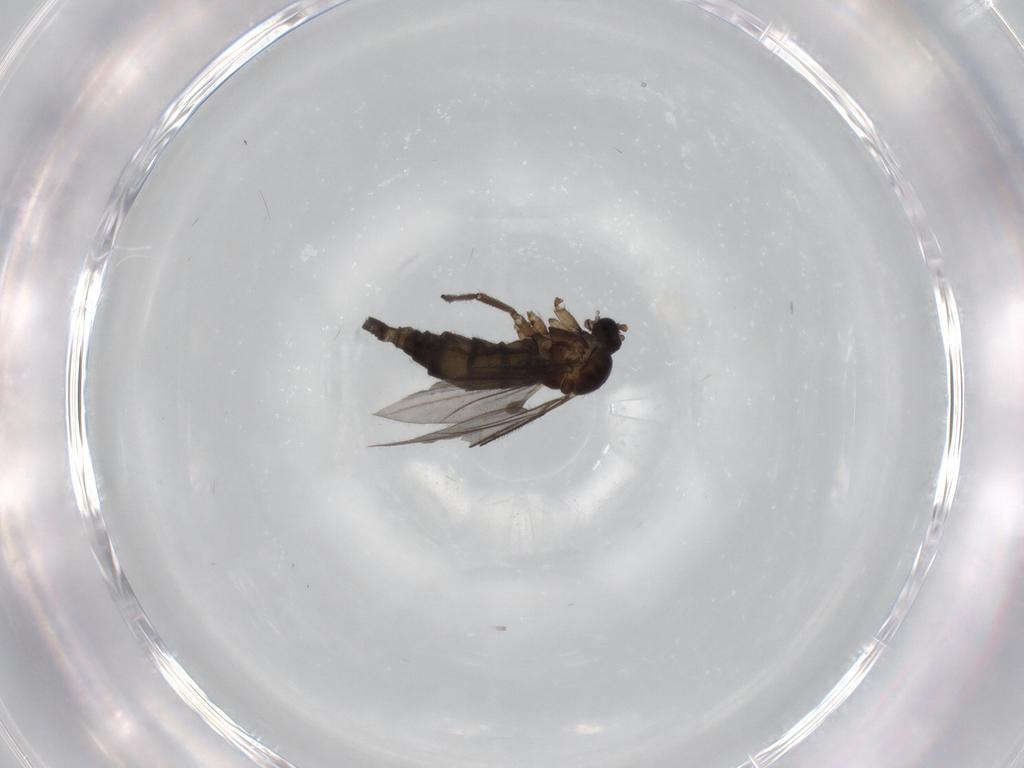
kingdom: Animalia
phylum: Arthropoda
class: Insecta
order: Diptera
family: Sciaridae
